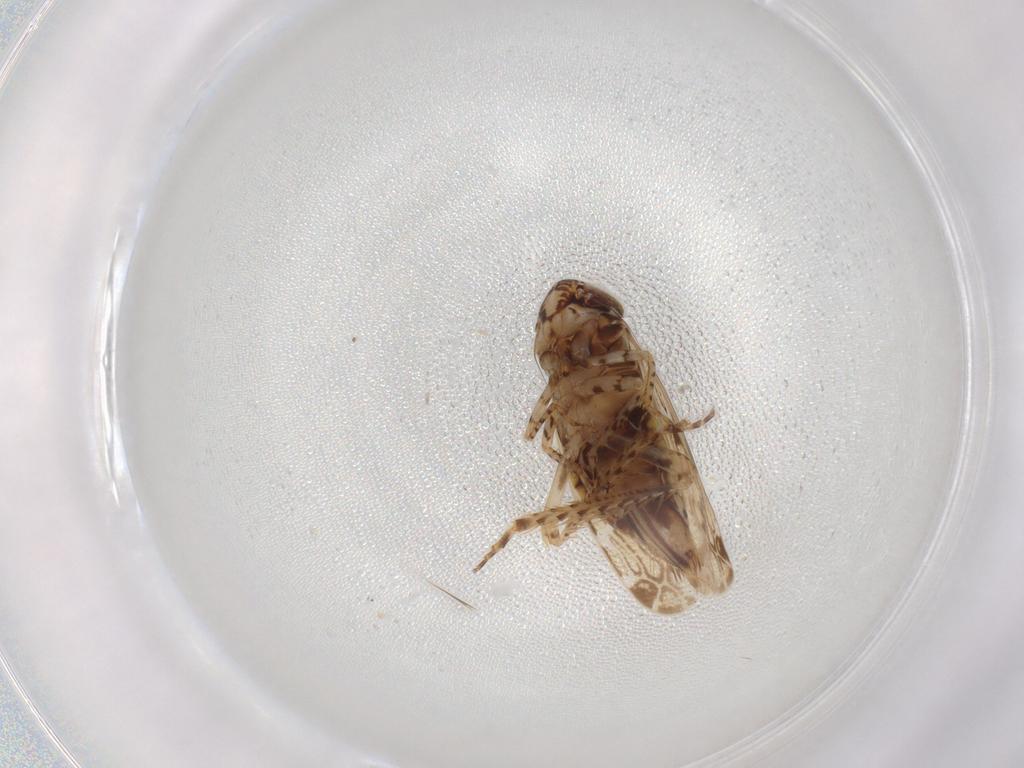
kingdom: Animalia
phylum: Arthropoda
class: Insecta
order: Hemiptera
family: Cicadellidae
